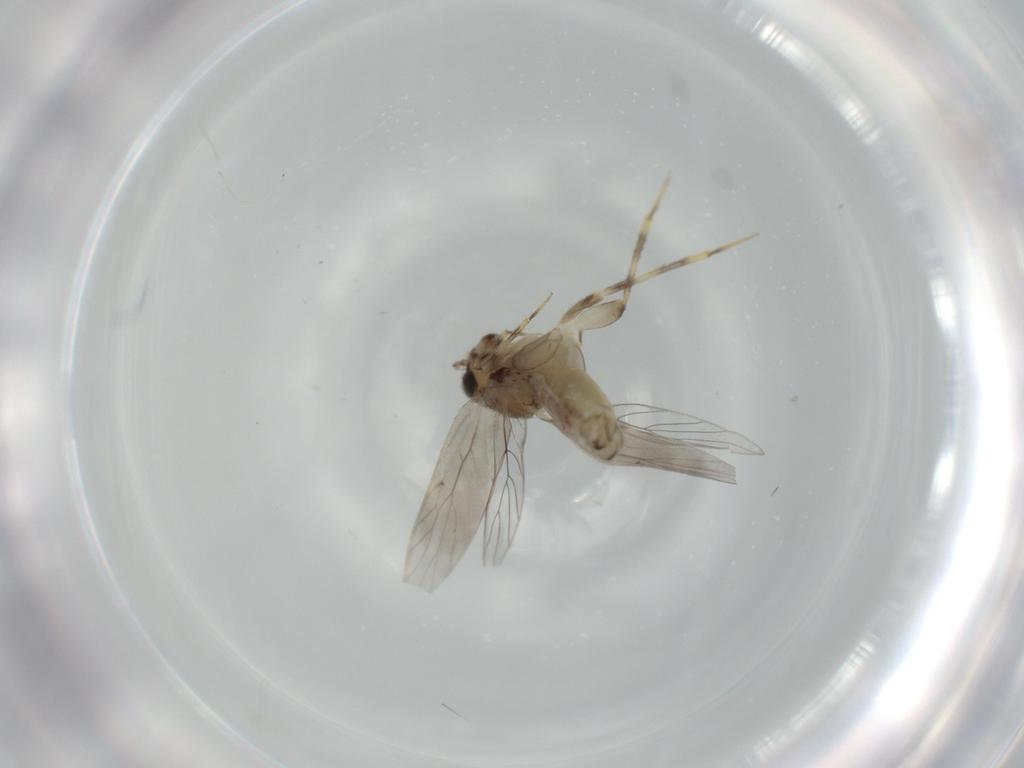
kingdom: Animalia
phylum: Arthropoda
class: Insecta
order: Psocodea
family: Lepidopsocidae
